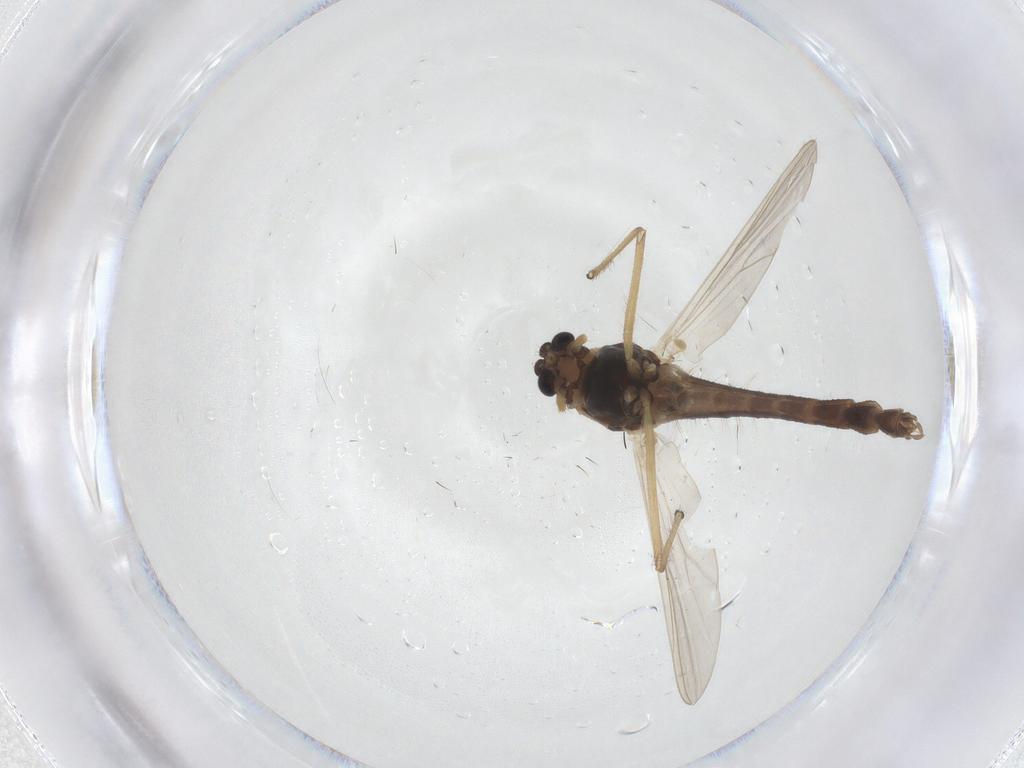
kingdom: Animalia
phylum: Arthropoda
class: Insecta
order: Diptera
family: Chironomidae
